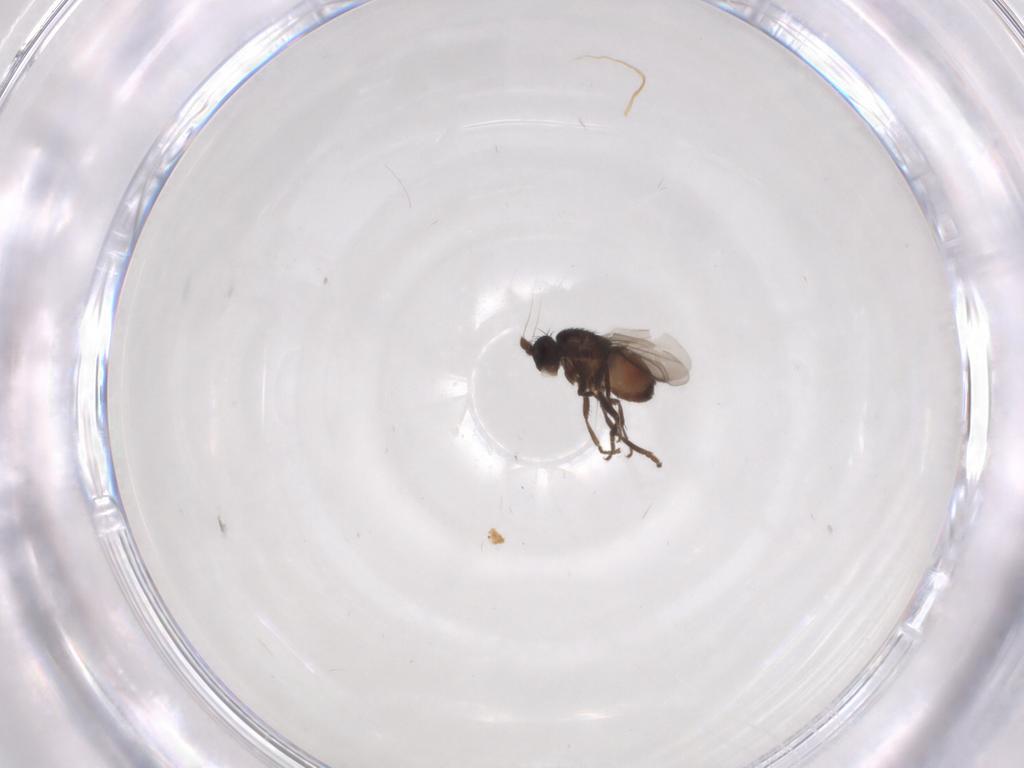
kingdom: Animalia
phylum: Arthropoda
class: Insecta
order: Diptera
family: Sphaeroceridae
